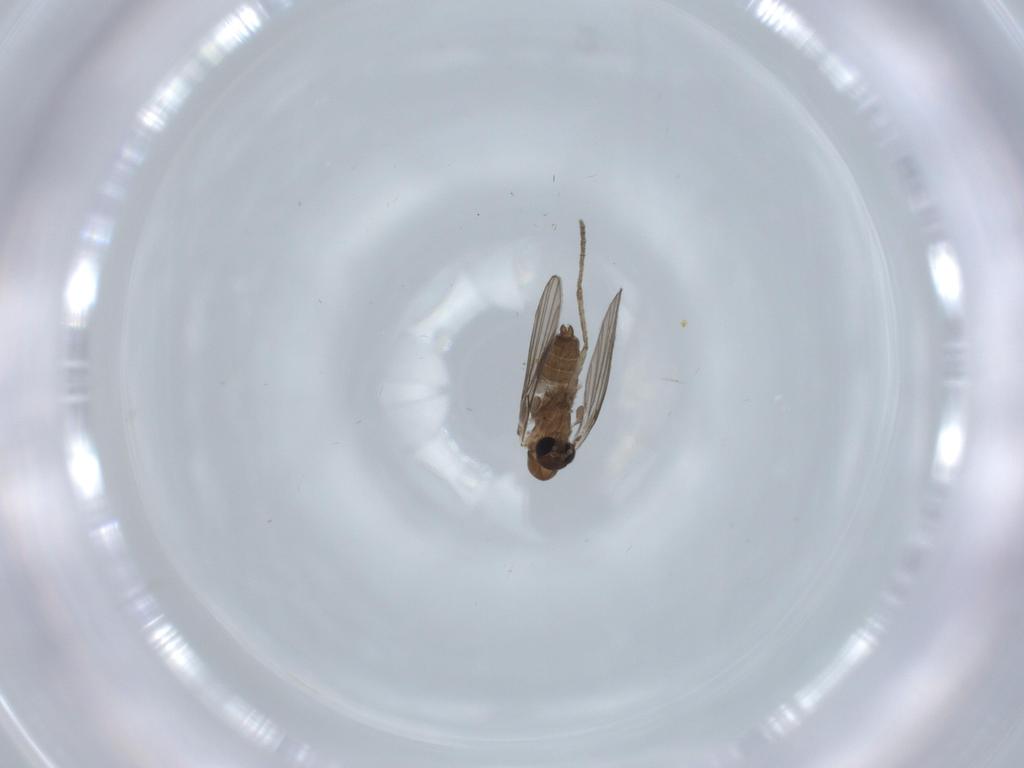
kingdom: Animalia
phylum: Arthropoda
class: Insecta
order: Diptera
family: Psychodidae
